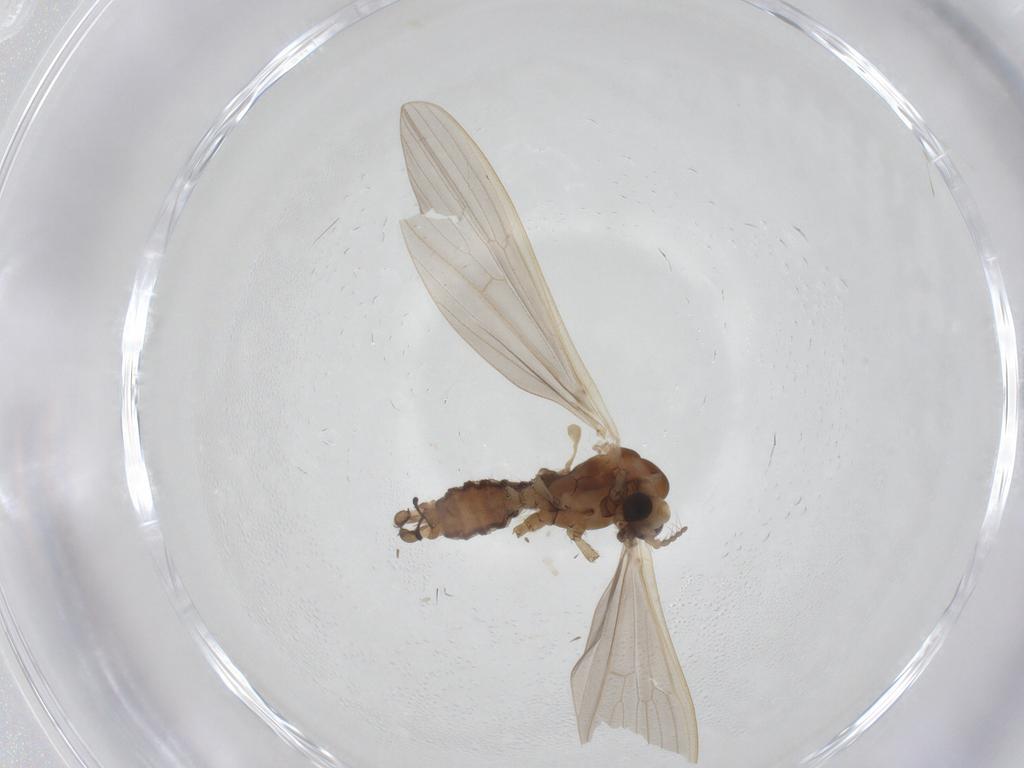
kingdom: Animalia
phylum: Arthropoda
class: Insecta
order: Diptera
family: Limoniidae
